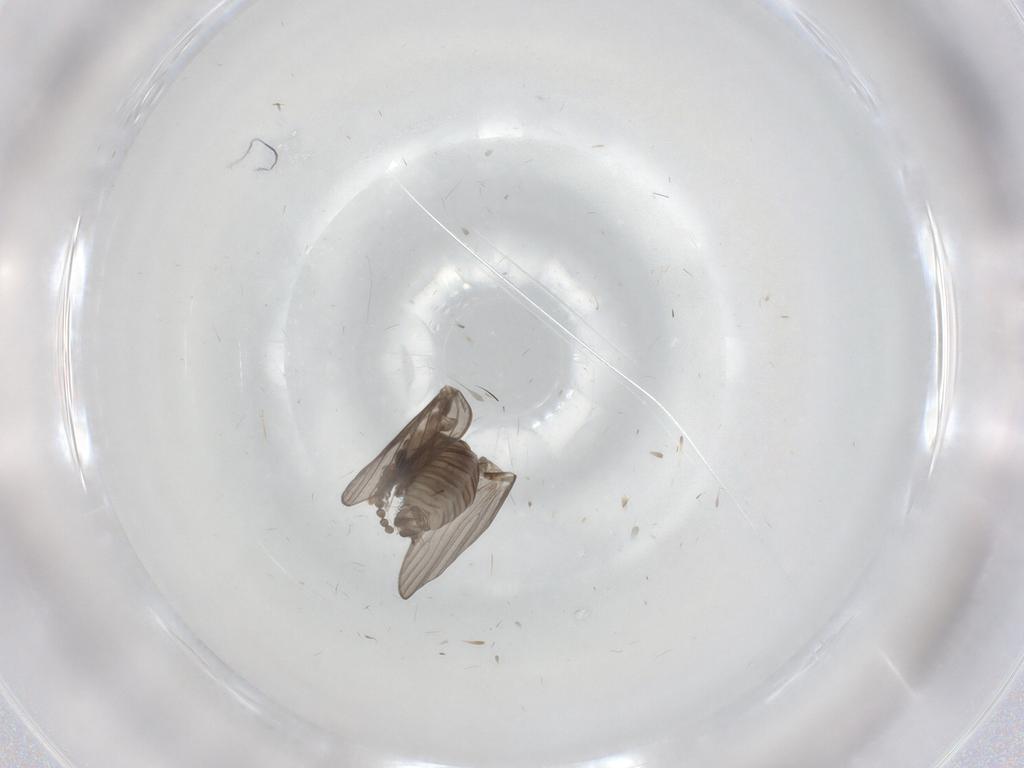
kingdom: Animalia
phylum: Arthropoda
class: Insecta
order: Diptera
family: Psychodidae
